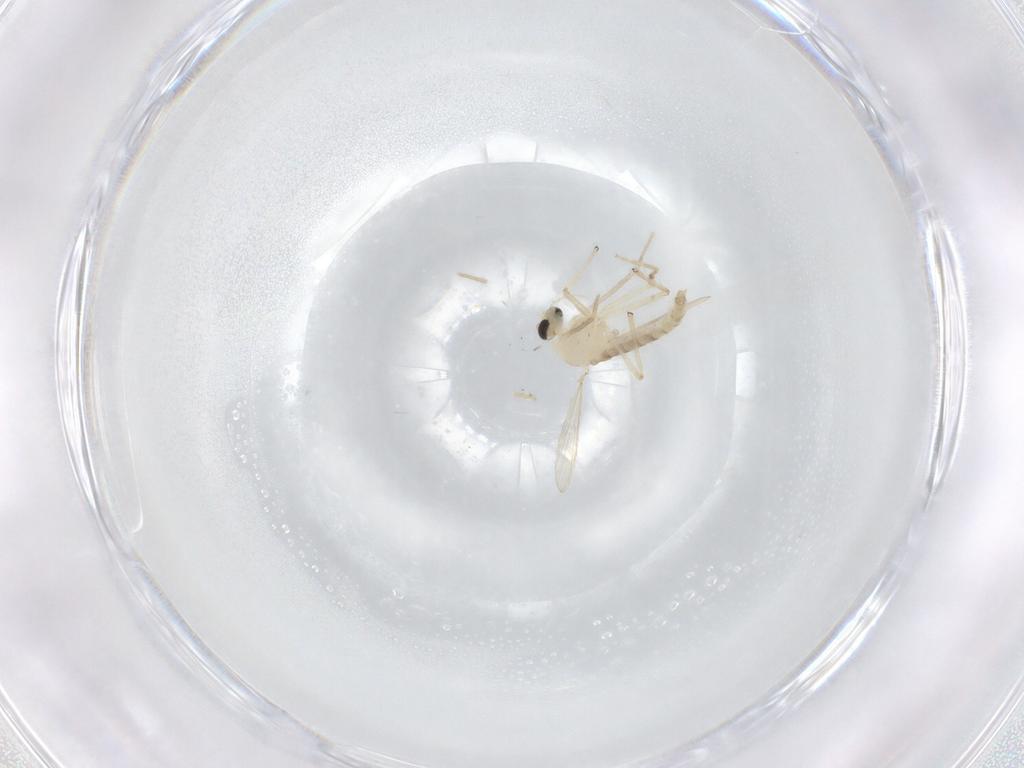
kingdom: Animalia
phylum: Arthropoda
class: Insecta
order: Diptera
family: Chironomidae
